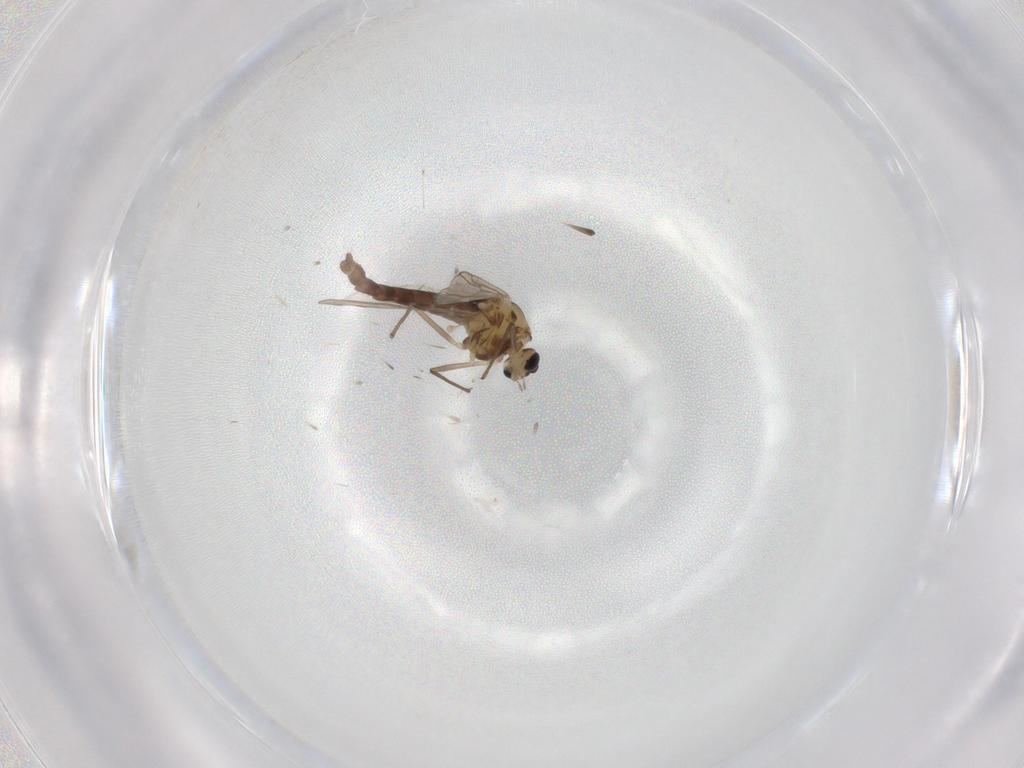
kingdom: Animalia
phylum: Arthropoda
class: Insecta
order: Diptera
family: Chironomidae
